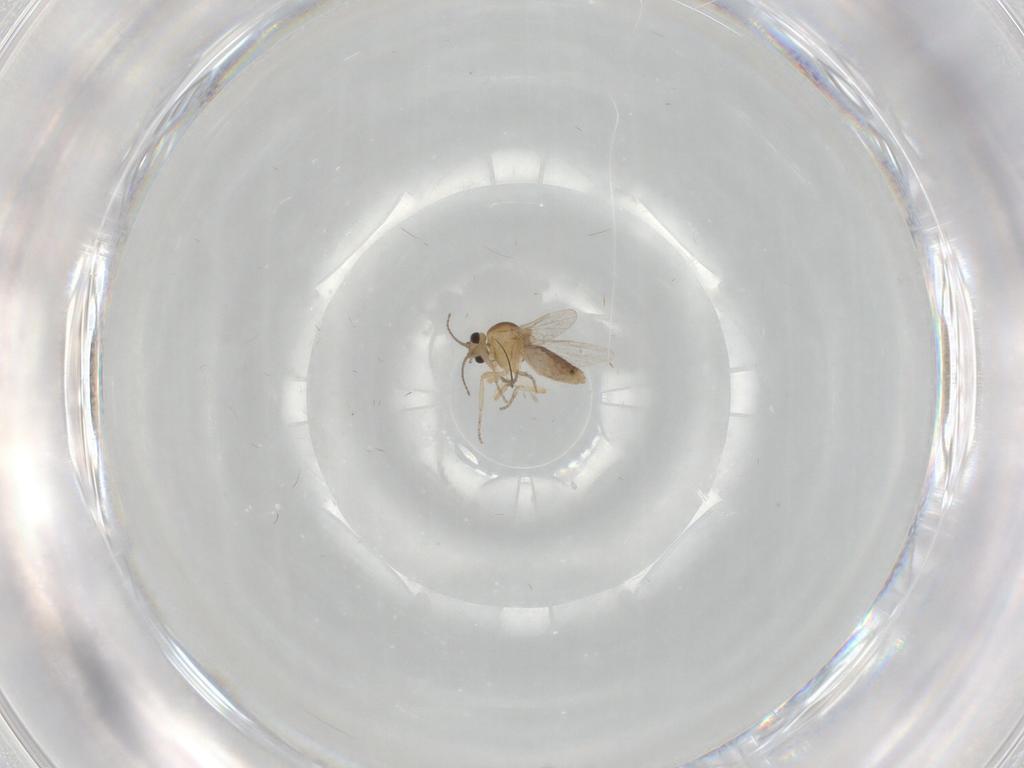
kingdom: Animalia
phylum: Arthropoda
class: Insecta
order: Diptera
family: Ceratopogonidae
